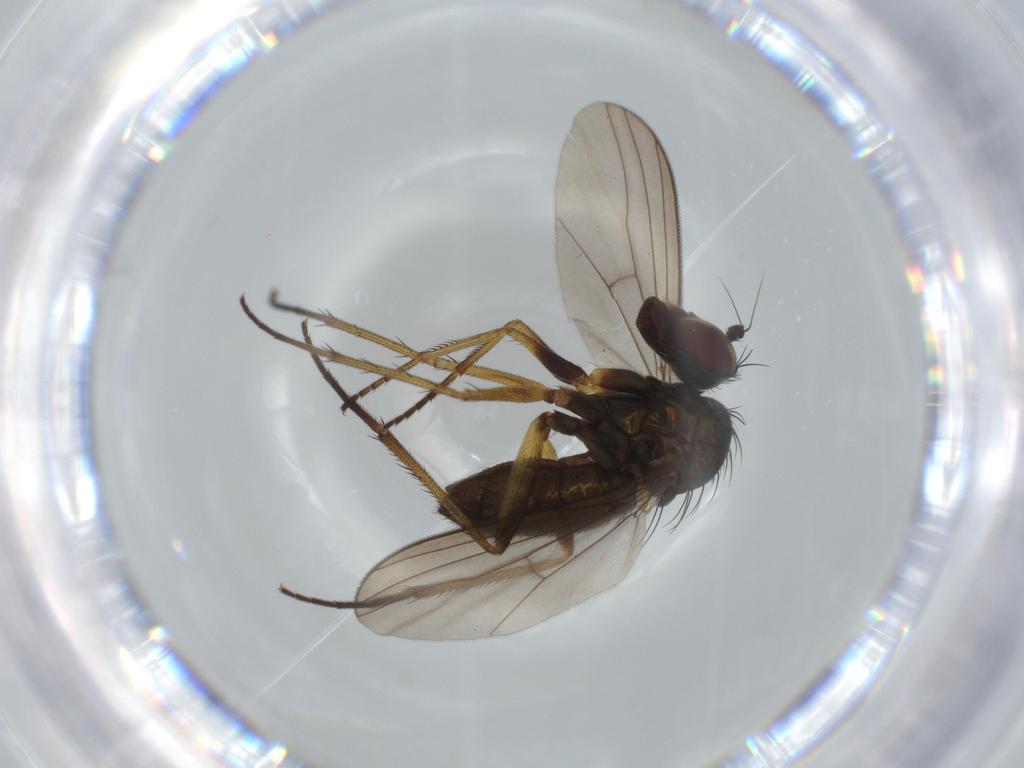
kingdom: Animalia
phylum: Arthropoda
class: Insecta
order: Diptera
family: Dolichopodidae
